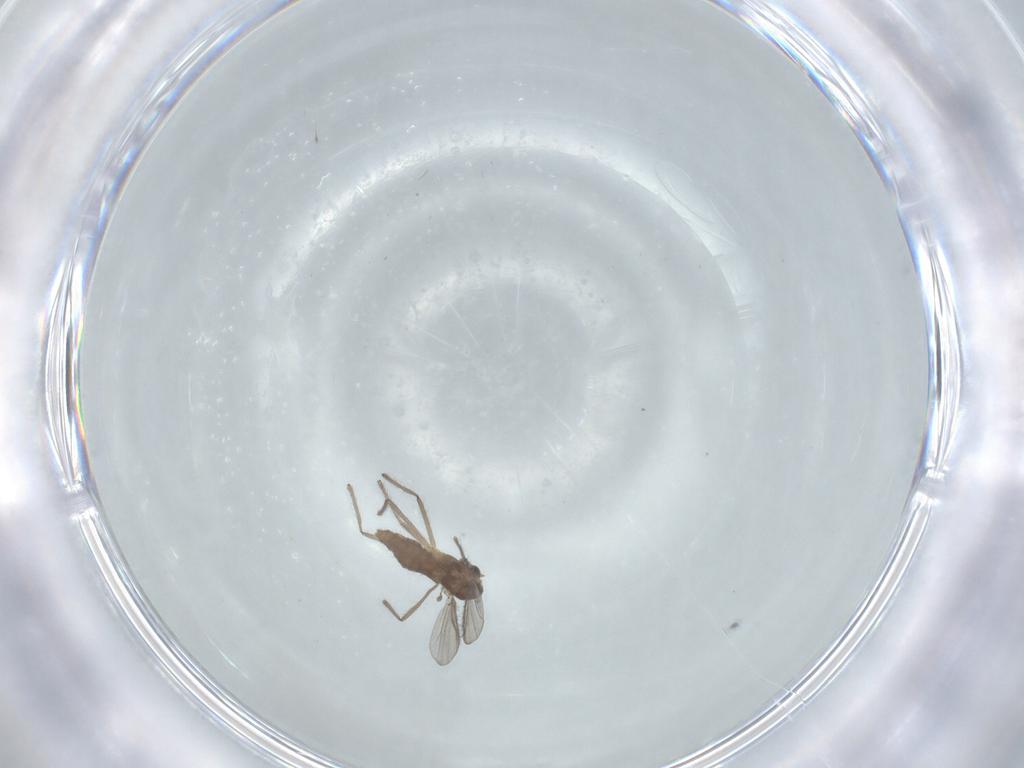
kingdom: Animalia
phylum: Arthropoda
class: Insecta
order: Diptera
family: Chironomidae
